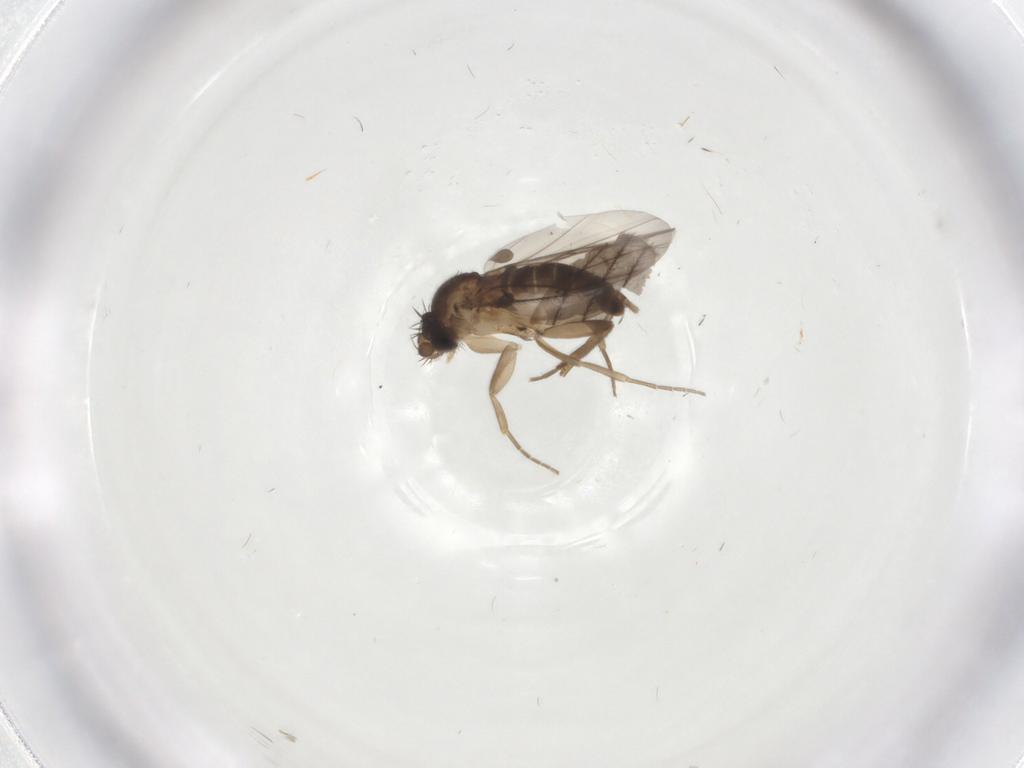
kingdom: Animalia
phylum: Arthropoda
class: Insecta
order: Diptera
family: Phoridae
